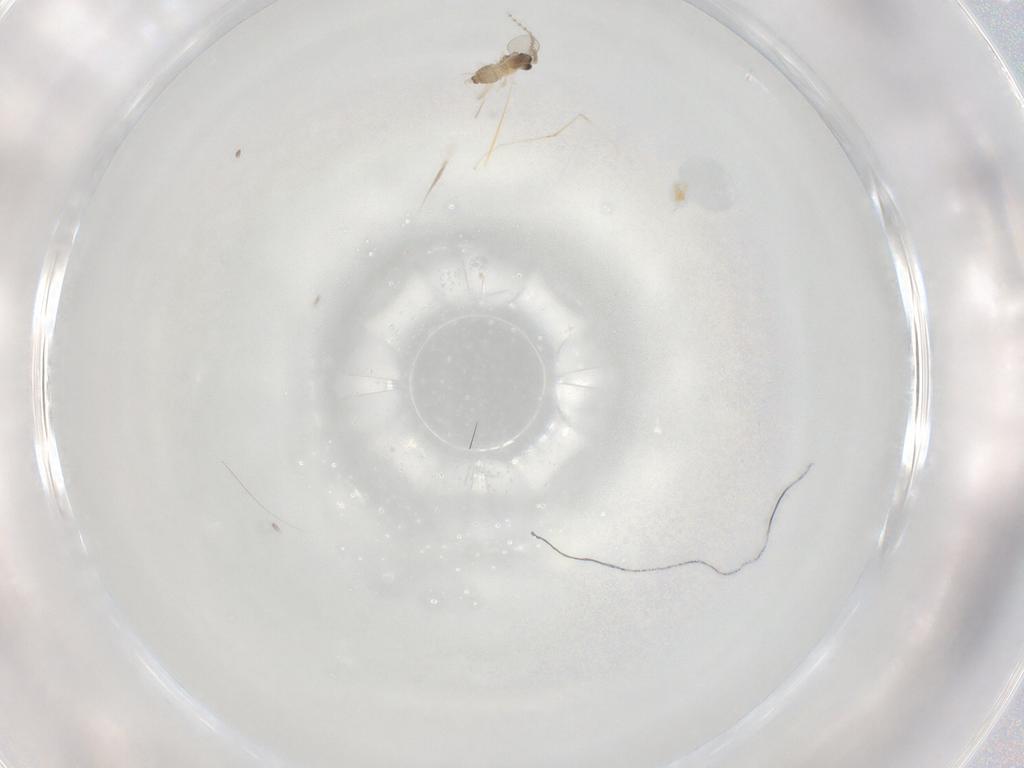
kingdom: Animalia
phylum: Arthropoda
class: Insecta
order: Diptera
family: Cecidomyiidae
